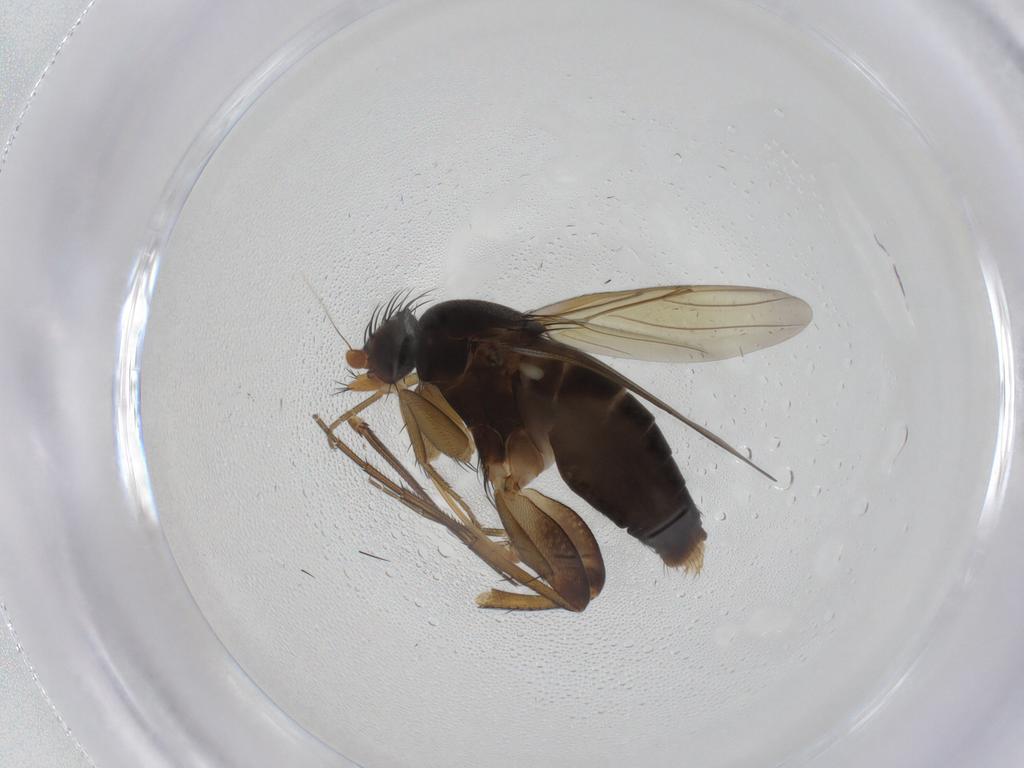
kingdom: Animalia
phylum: Arthropoda
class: Insecta
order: Diptera
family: Phoridae
